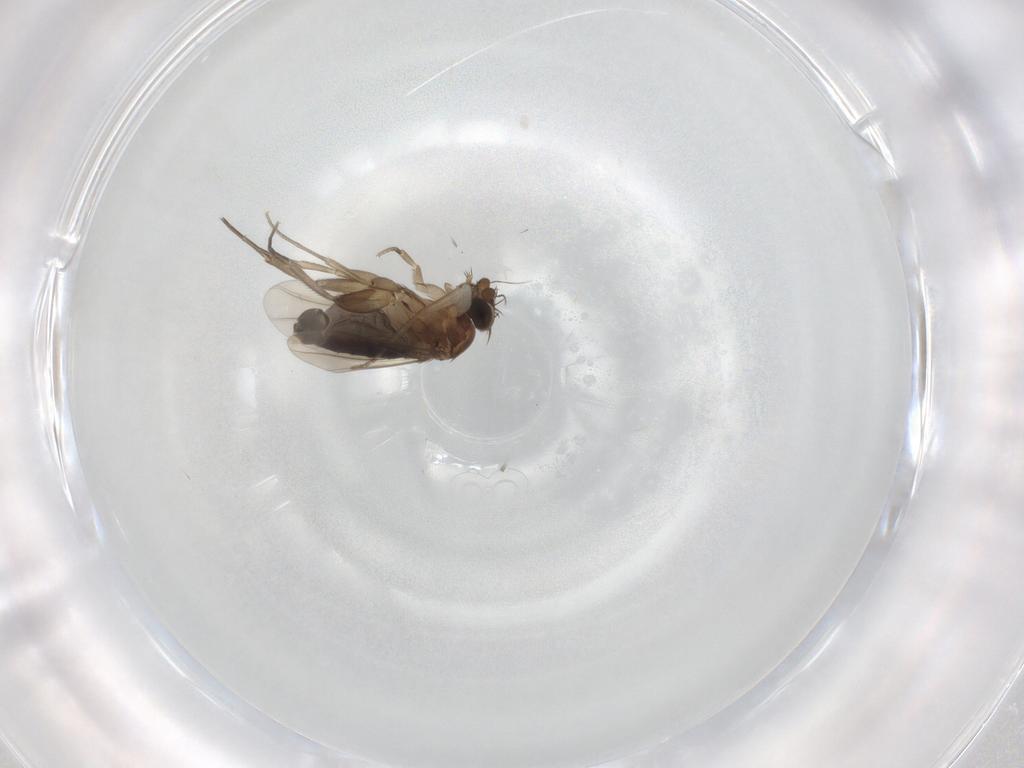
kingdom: Animalia
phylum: Arthropoda
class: Insecta
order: Diptera
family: Phoridae
